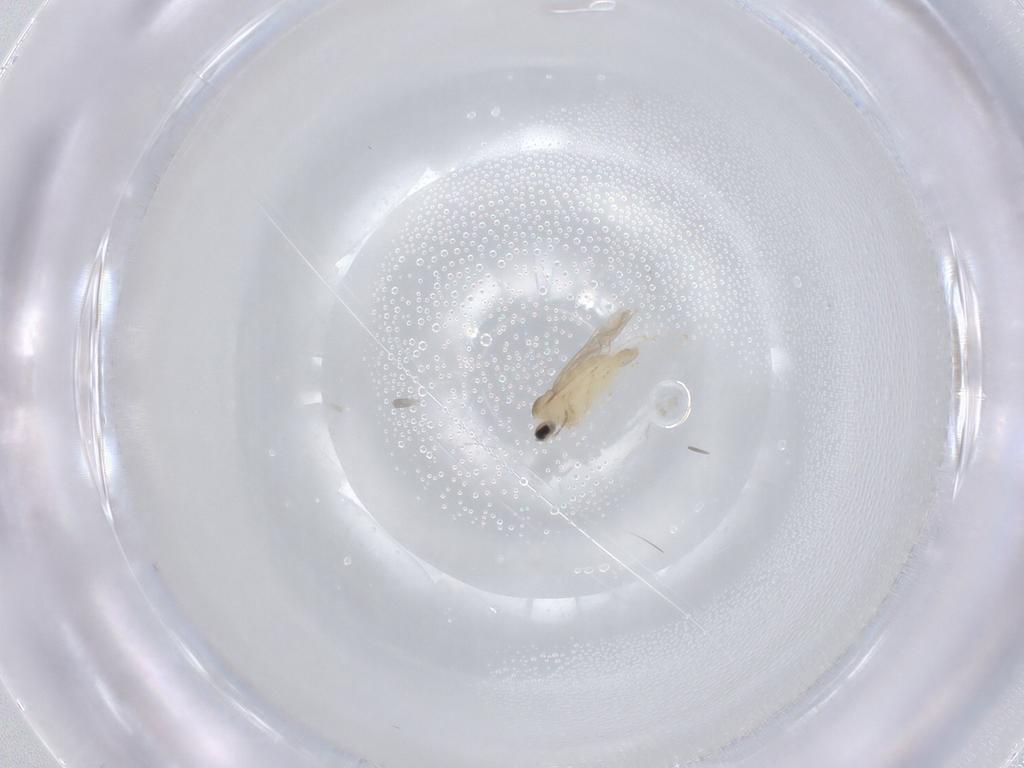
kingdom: Animalia
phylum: Arthropoda
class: Insecta
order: Diptera
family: Cecidomyiidae
